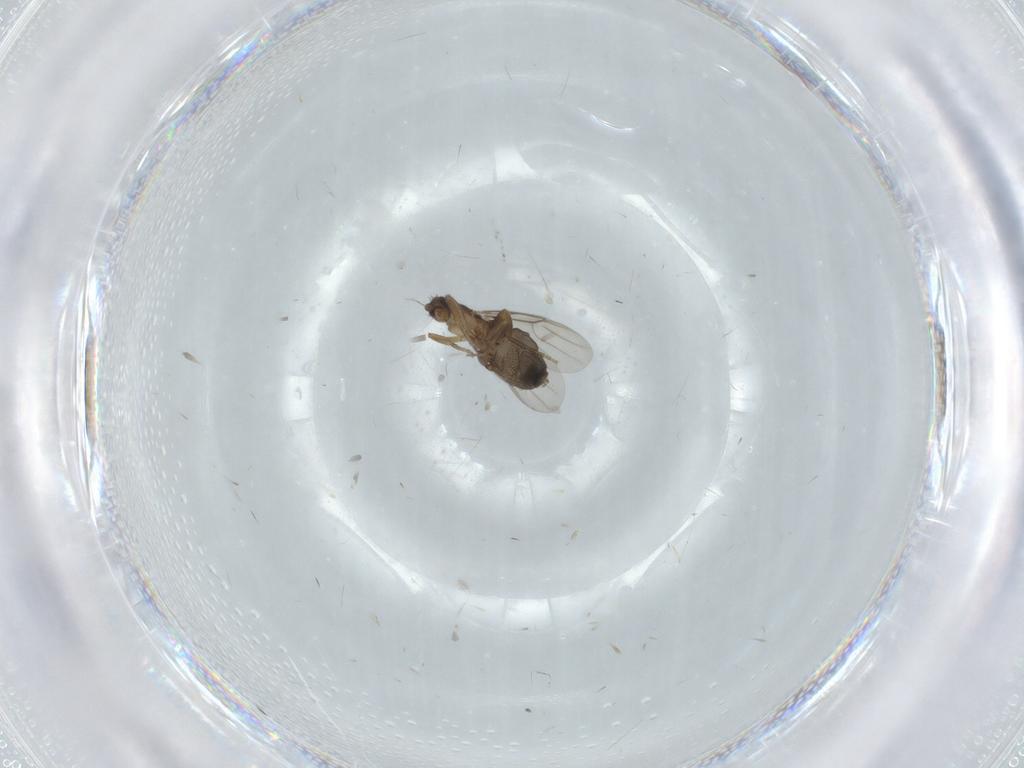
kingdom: Animalia
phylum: Arthropoda
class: Insecta
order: Diptera
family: Phoridae
